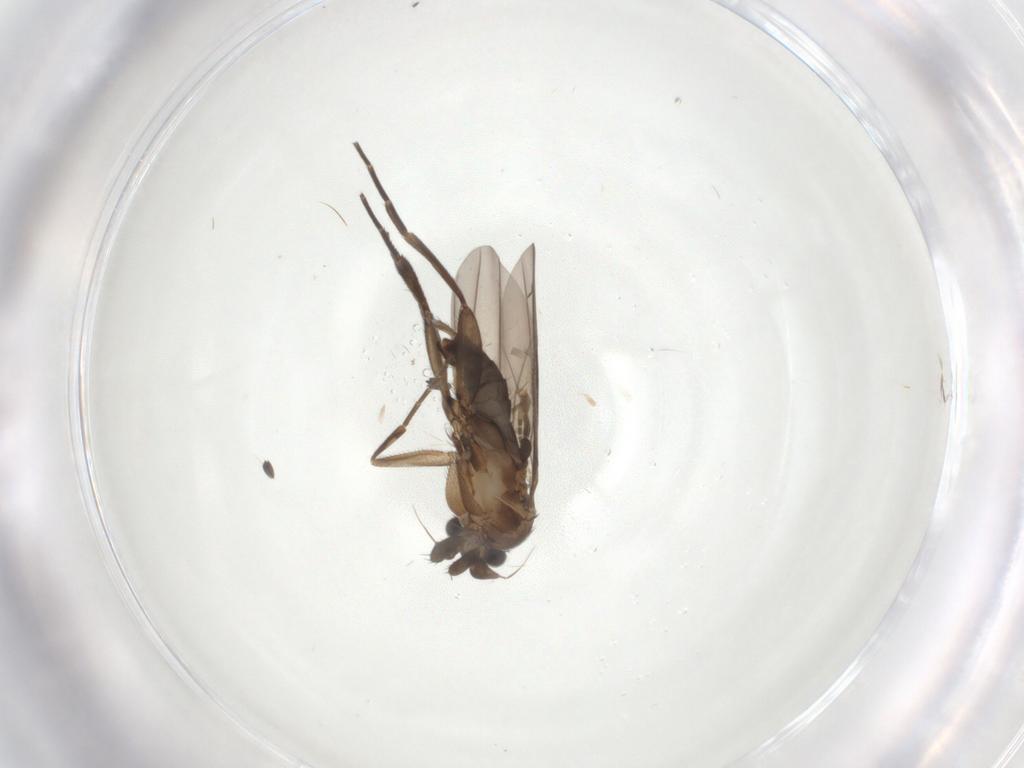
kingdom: Animalia
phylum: Arthropoda
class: Insecta
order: Diptera
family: Phoridae
